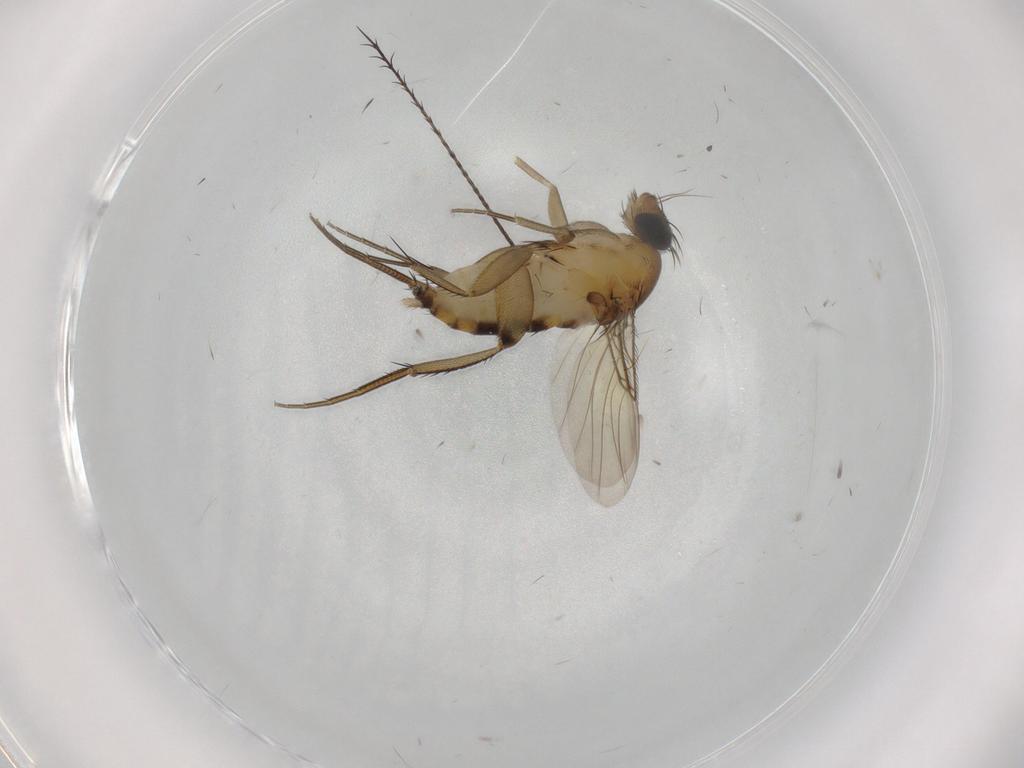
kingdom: Animalia
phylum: Arthropoda
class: Insecta
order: Diptera
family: Phoridae
